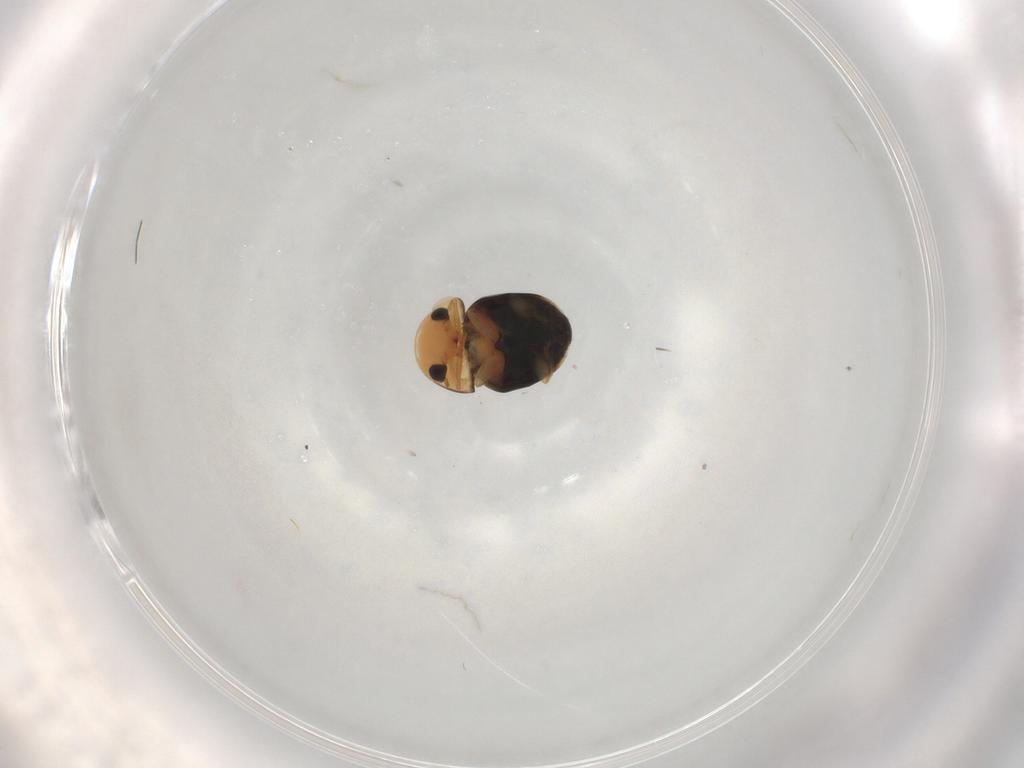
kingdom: Animalia
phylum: Arthropoda
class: Insecta
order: Coleoptera
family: Cybocephalidae
